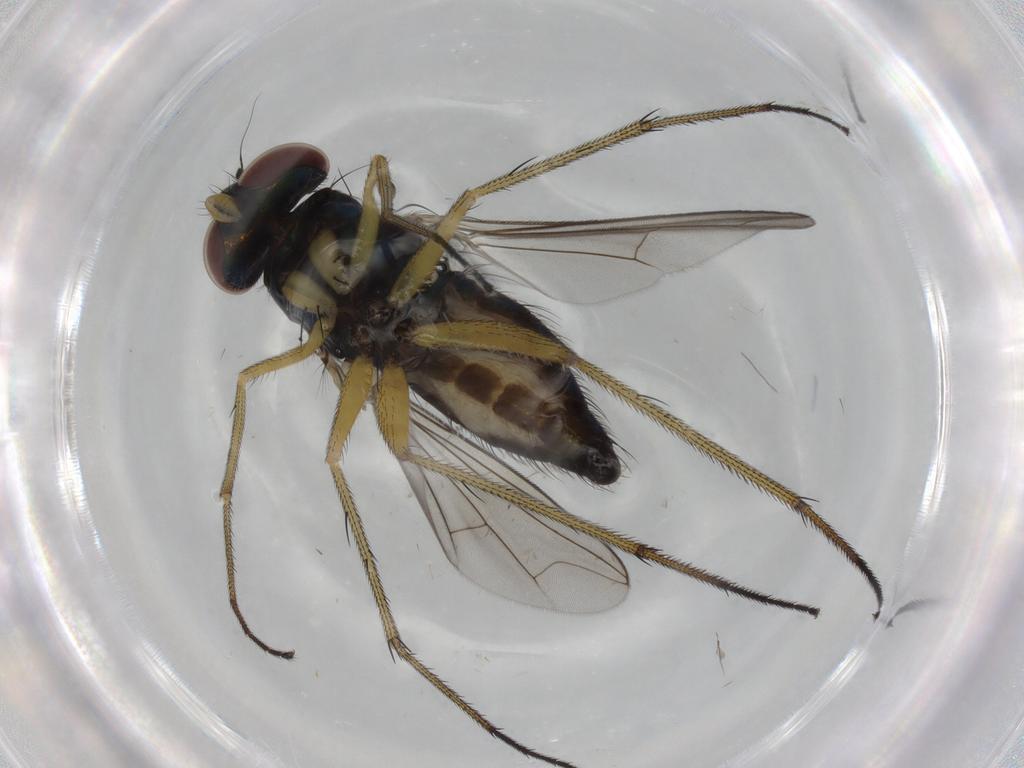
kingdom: Animalia
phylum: Arthropoda
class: Insecta
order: Diptera
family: Dolichopodidae
